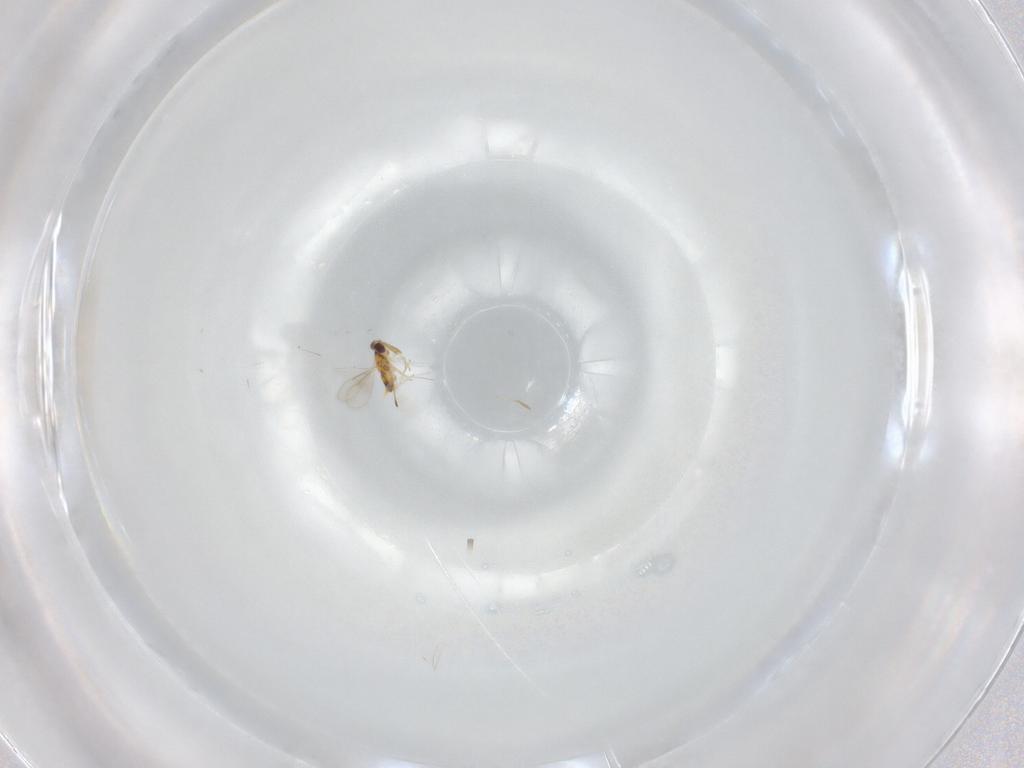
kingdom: Animalia
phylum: Arthropoda
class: Insecta
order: Hymenoptera
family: Aphelinidae
